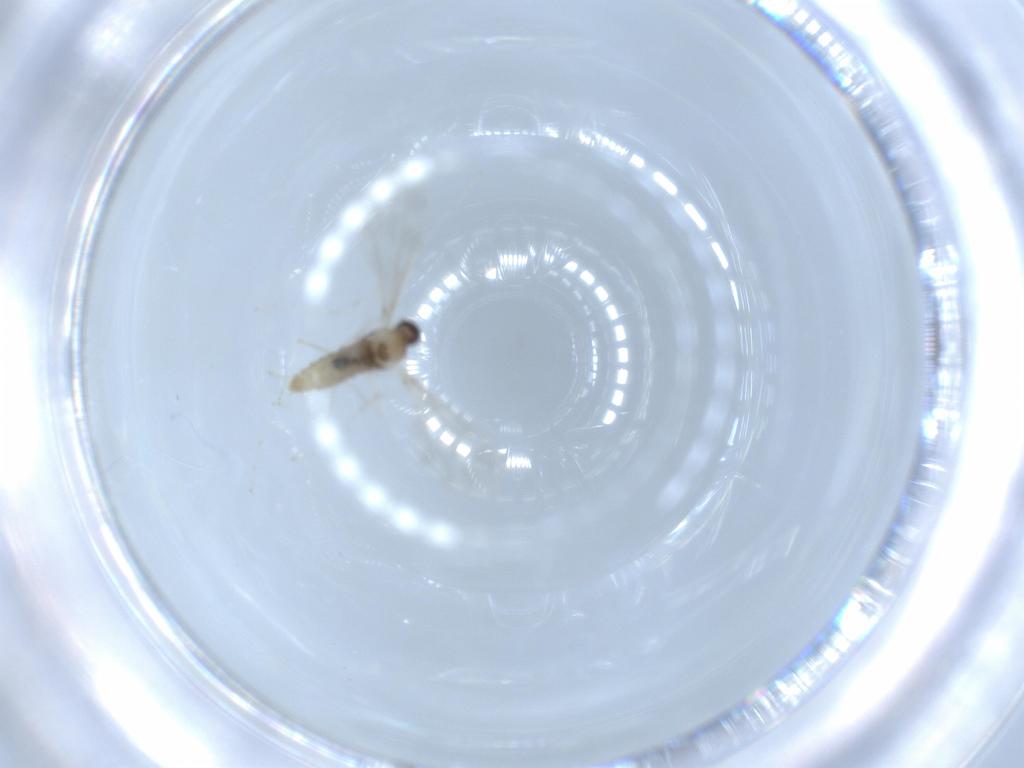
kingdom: Animalia
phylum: Arthropoda
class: Insecta
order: Diptera
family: Cecidomyiidae
